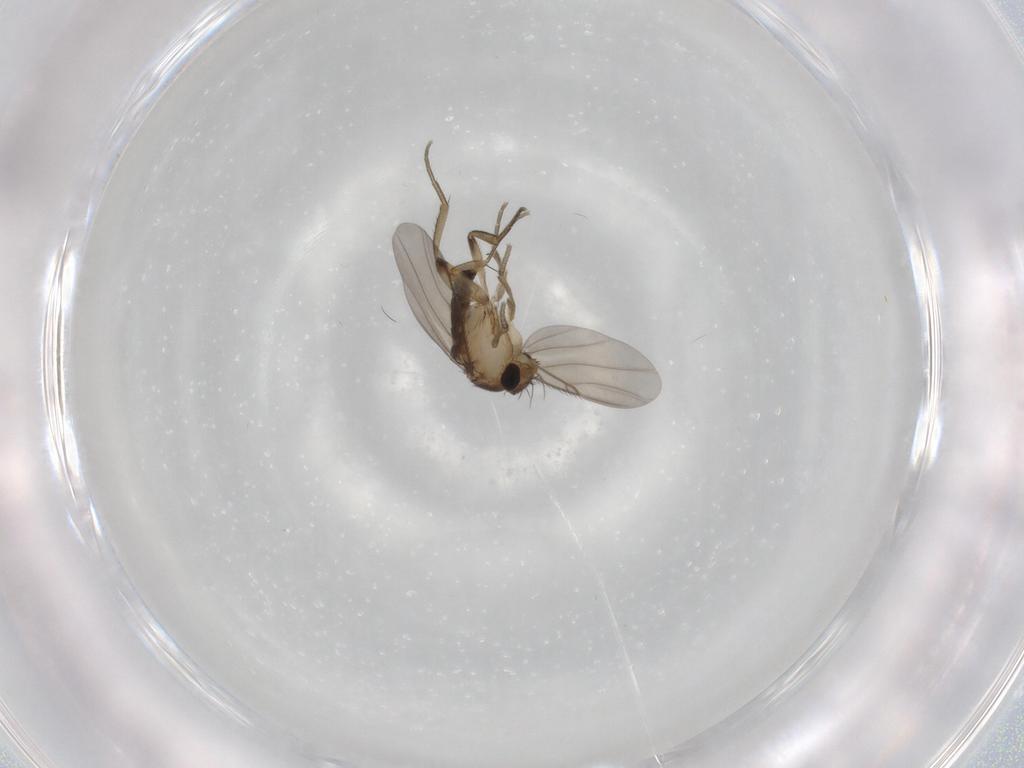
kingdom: Animalia
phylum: Arthropoda
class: Insecta
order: Diptera
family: Phoridae
